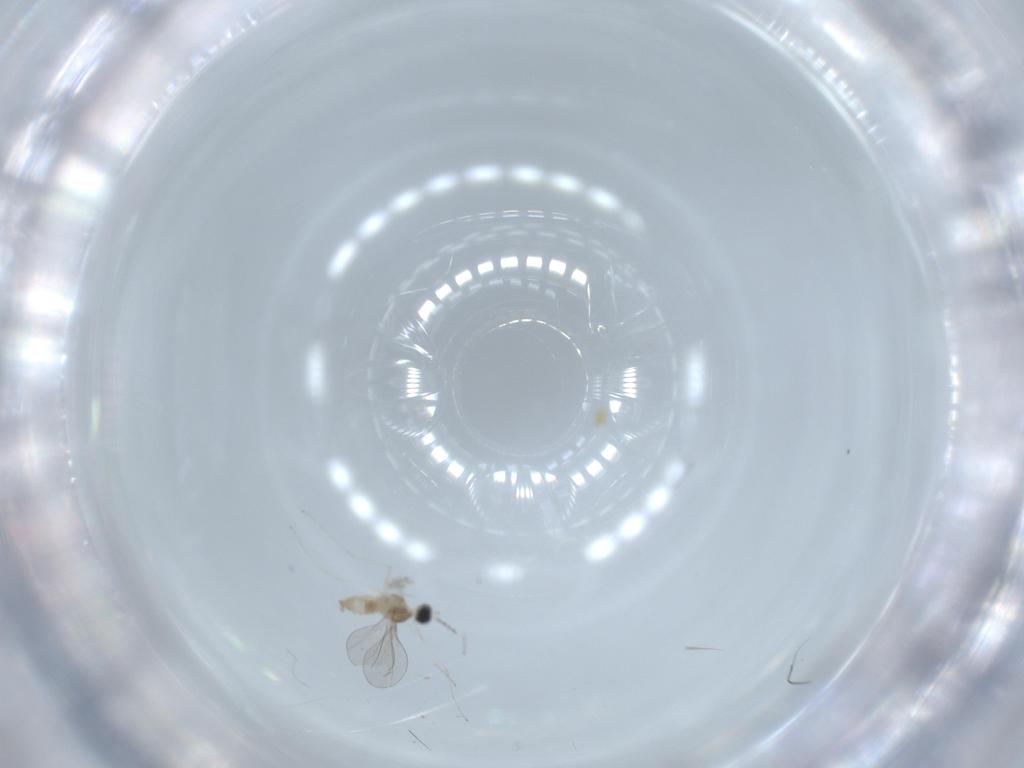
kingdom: Animalia
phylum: Arthropoda
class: Insecta
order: Diptera
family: Cecidomyiidae
